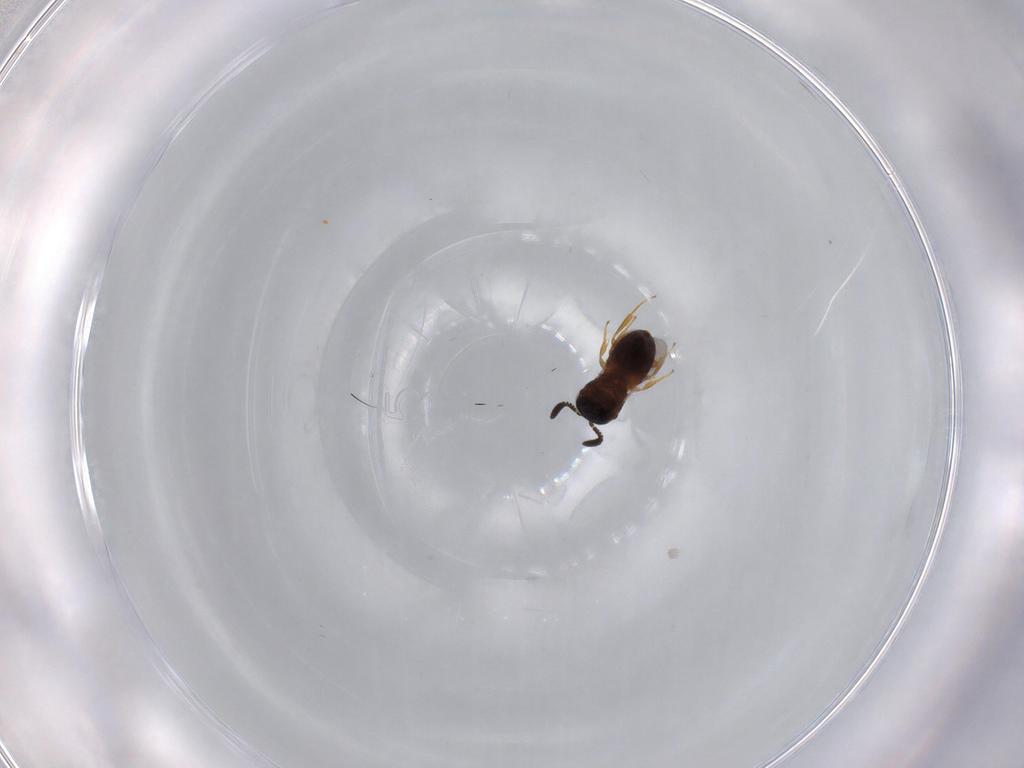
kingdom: Animalia
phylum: Arthropoda
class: Insecta
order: Hymenoptera
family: Scelionidae
